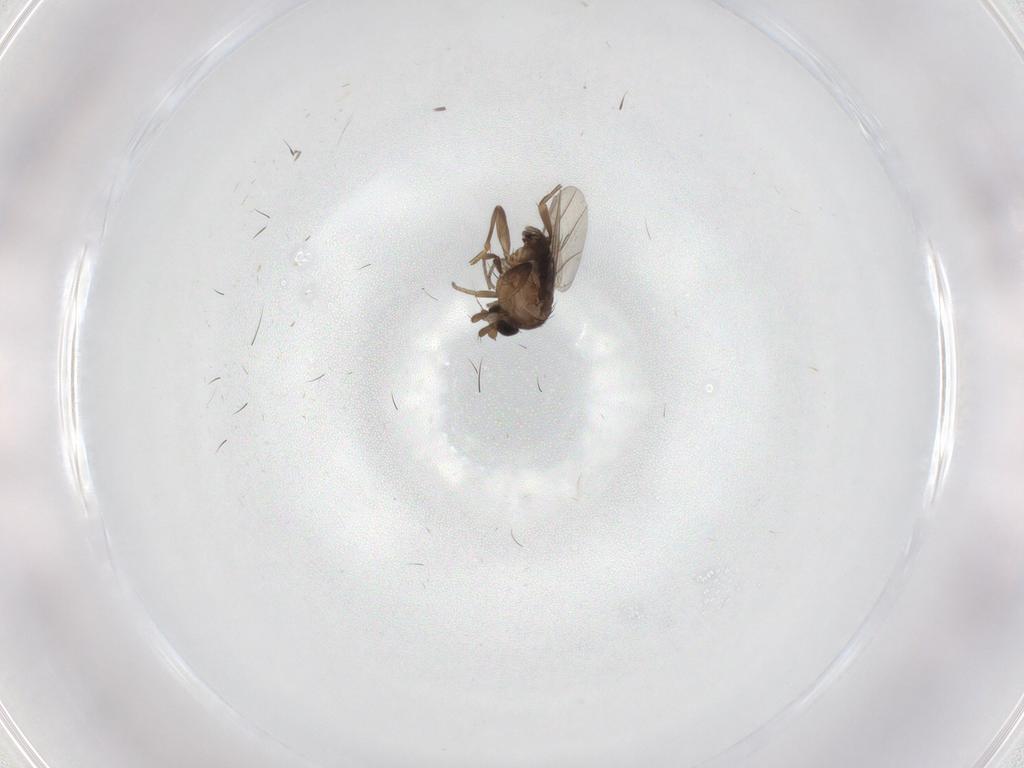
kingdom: Animalia
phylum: Arthropoda
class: Insecta
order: Diptera
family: Phoridae
